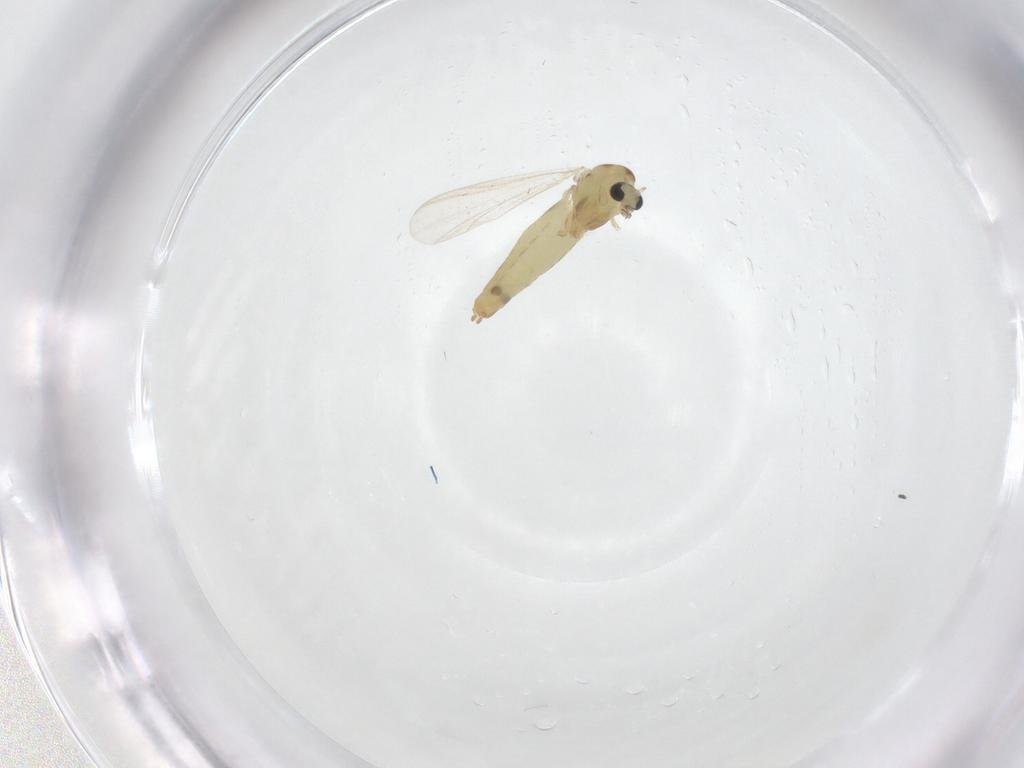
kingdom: Animalia
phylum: Arthropoda
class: Insecta
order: Diptera
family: Chironomidae
